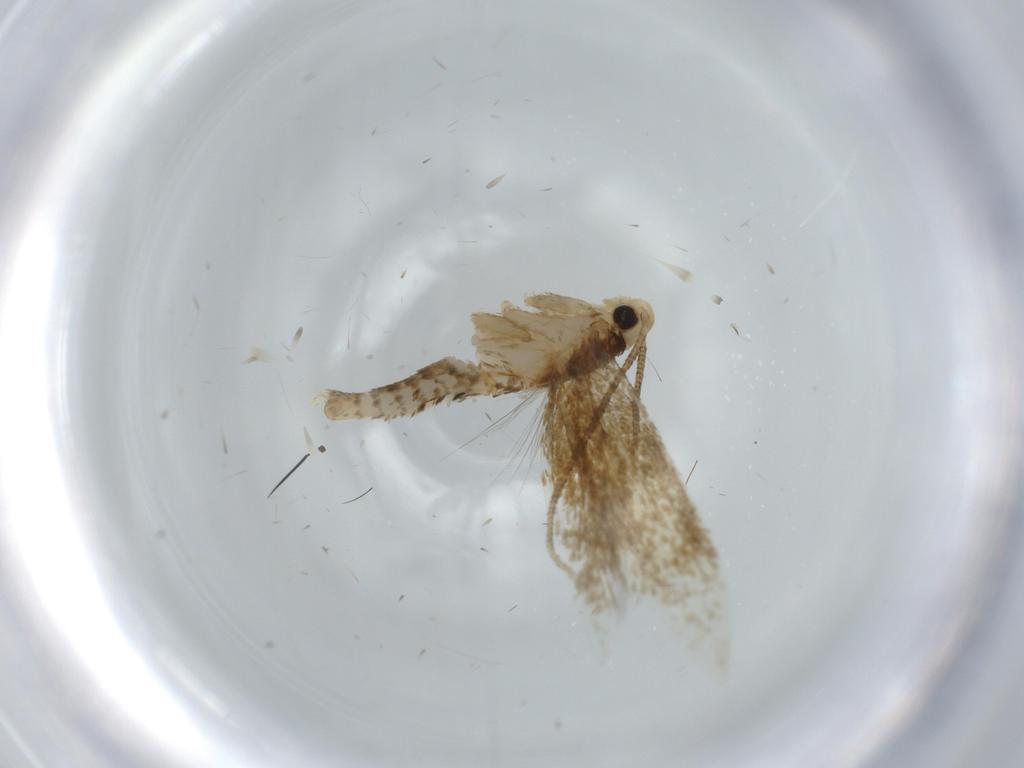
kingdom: Animalia
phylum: Arthropoda
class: Insecta
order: Lepidoptera
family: Tineidae
